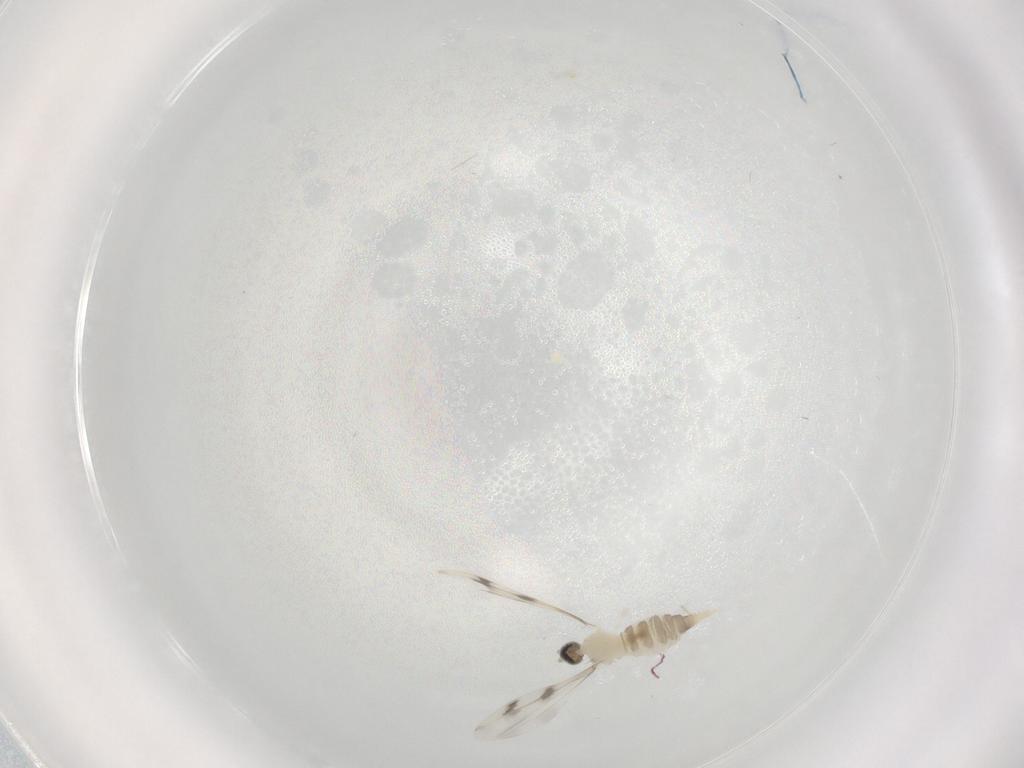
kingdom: Animalia
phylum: Arthropoda
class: Insecta
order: Diptera
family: Cecidomyiidae
